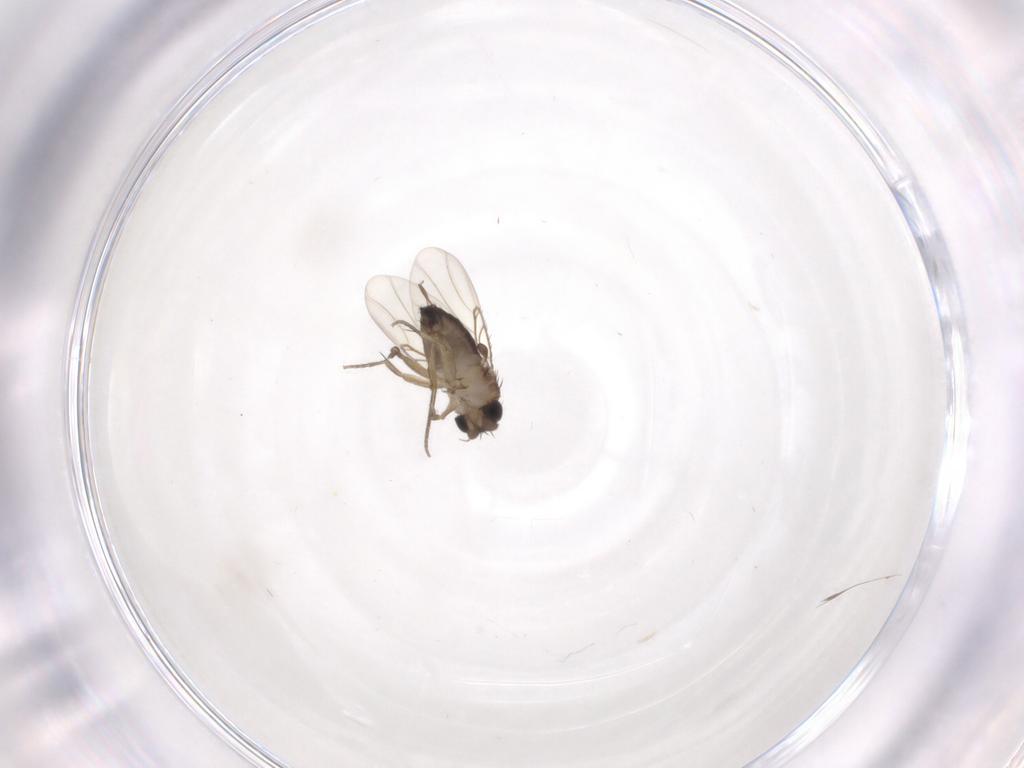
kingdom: Animalia
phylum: Arthropoda
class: Insecta
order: Diptera
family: Phoridae
